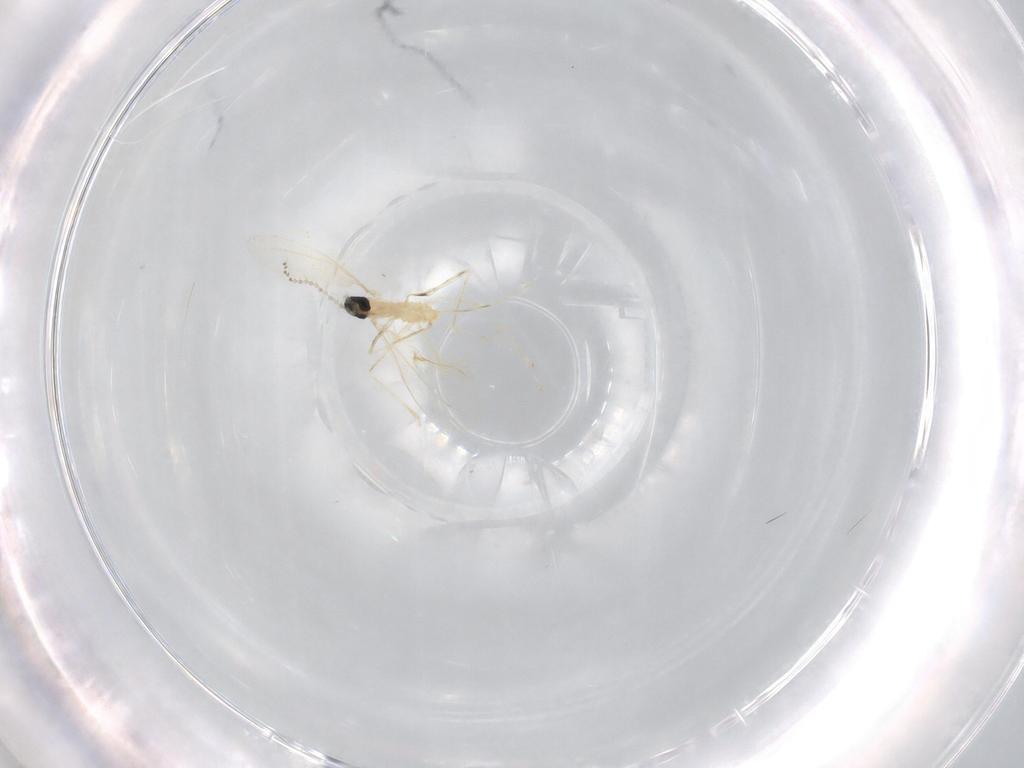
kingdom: Animalia
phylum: Arthropoda
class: Insecta
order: Diptera
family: Cecidomyiidae
